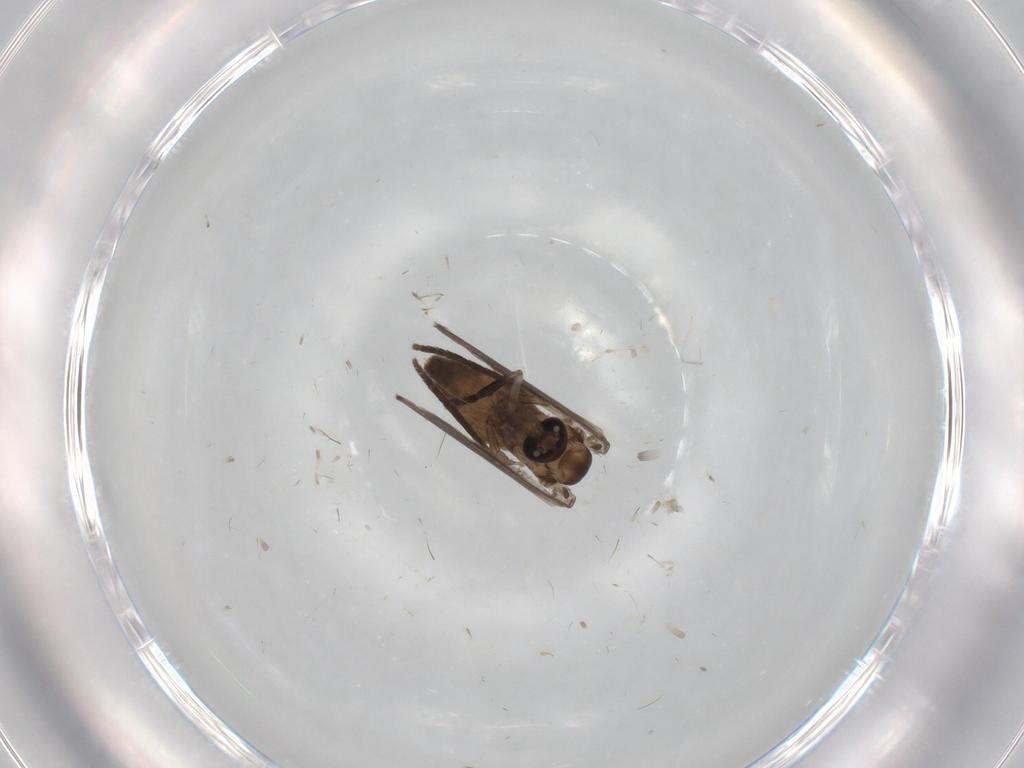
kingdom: Animalia
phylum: Arthropoda
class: Insecta
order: Diptera
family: Psychodidae
